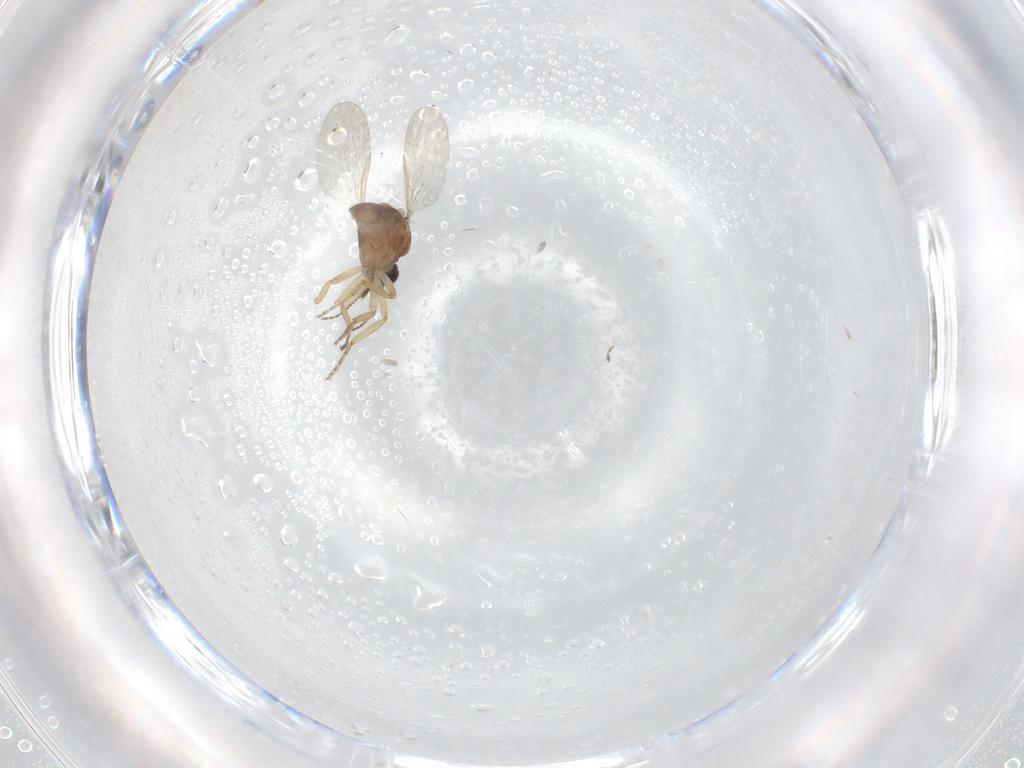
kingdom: Animalia
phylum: Arthropoda
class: Insecta
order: Diptera
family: Ceratopogonidae
